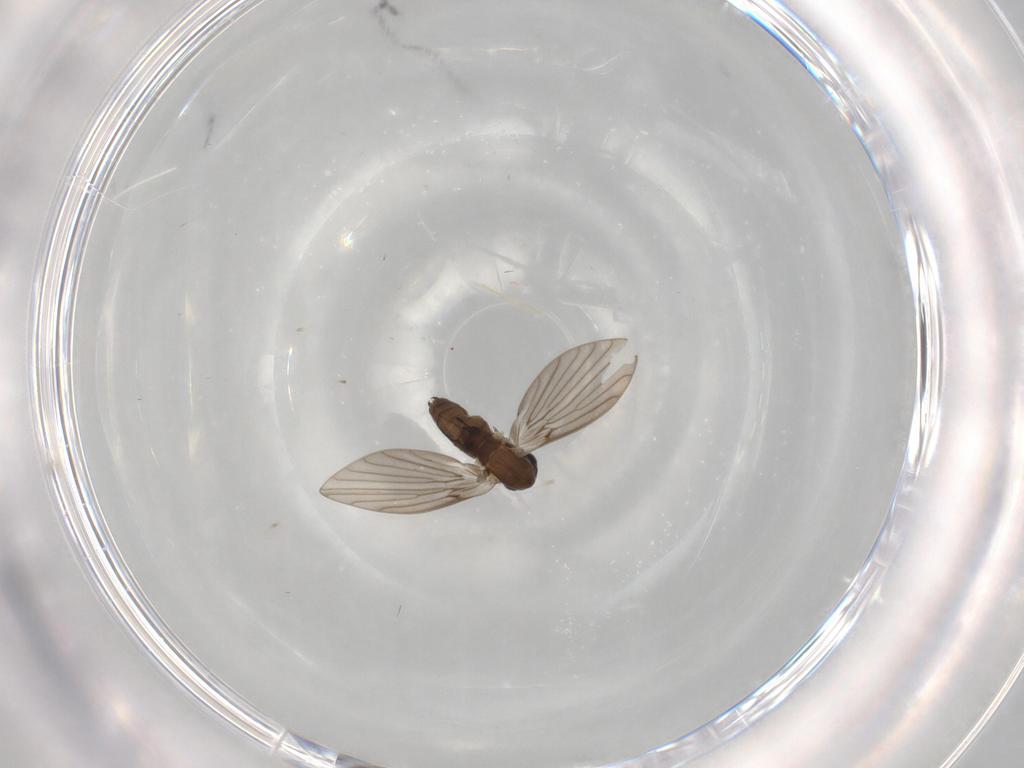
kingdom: Animalia
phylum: Arthropoda
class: Insecta
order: Diptera
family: Psychodidae
